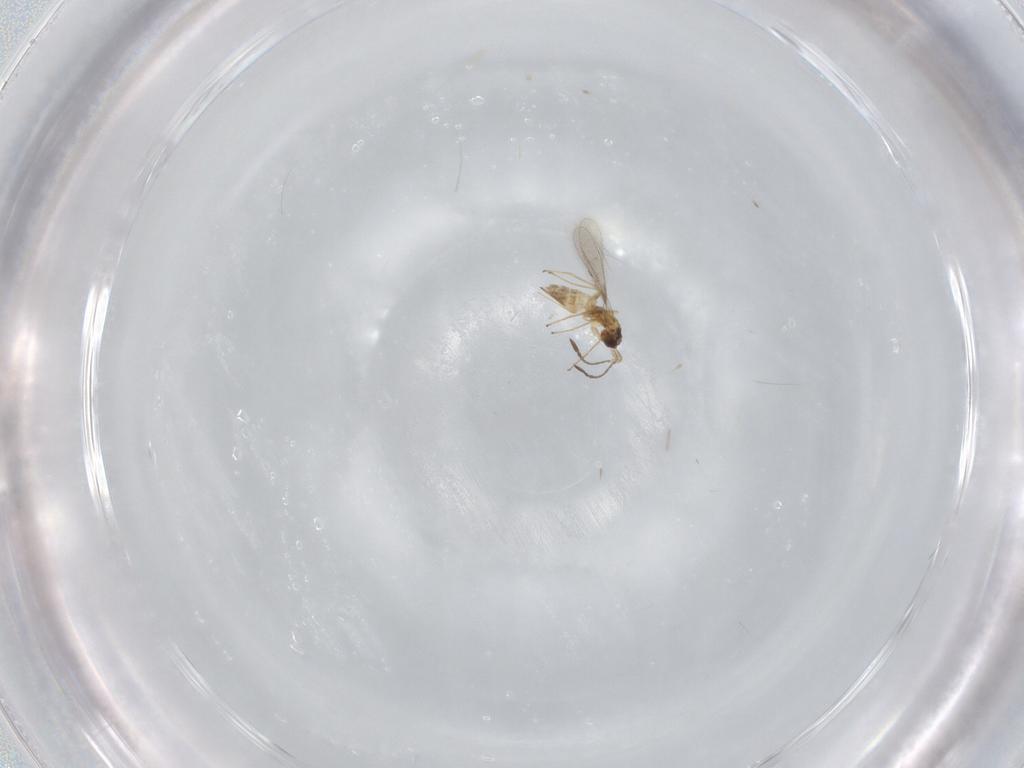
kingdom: Animalia
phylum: Arthropoda
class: Insecta
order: Hymenoptera
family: Mymaridae
